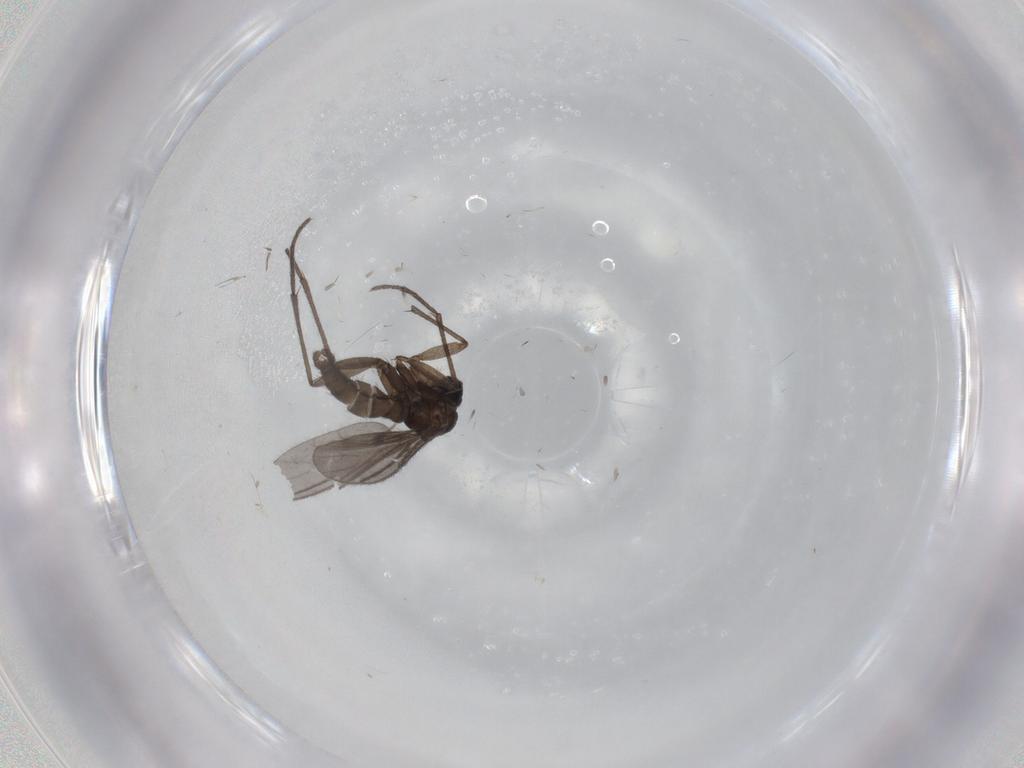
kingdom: Animalia
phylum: Arthropoda
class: Insecta
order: Diptera
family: Sciaridae
